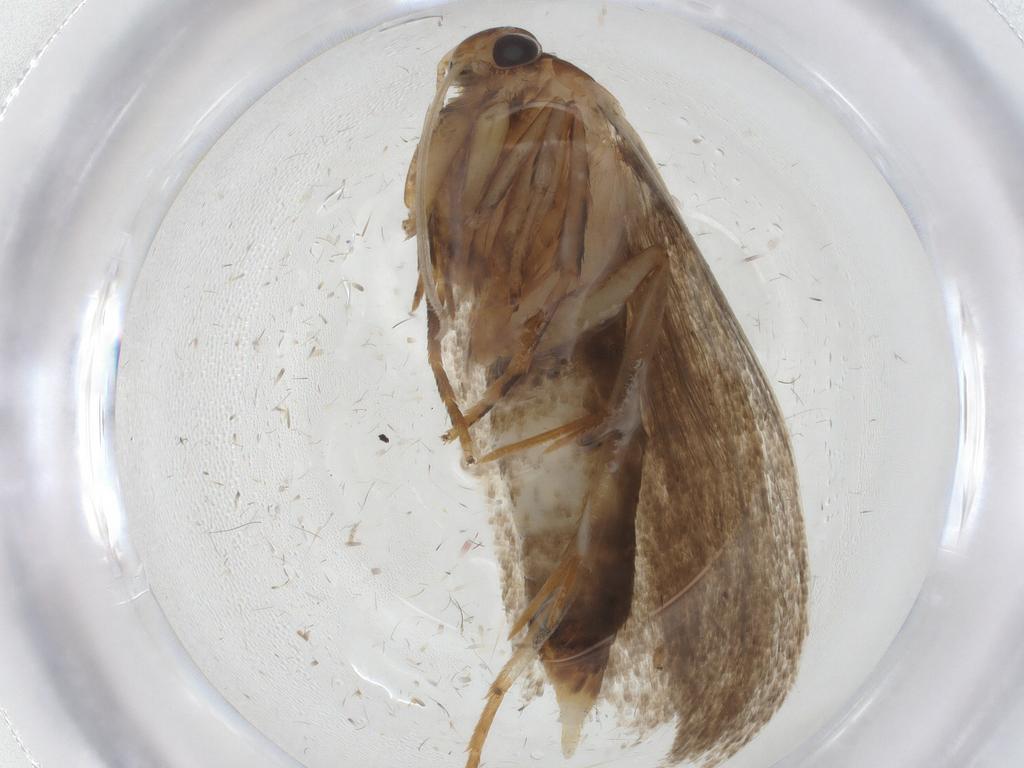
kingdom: Animalia
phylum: Arthropoda
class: Insecta
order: Lepidoptera
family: Oecophoridae
